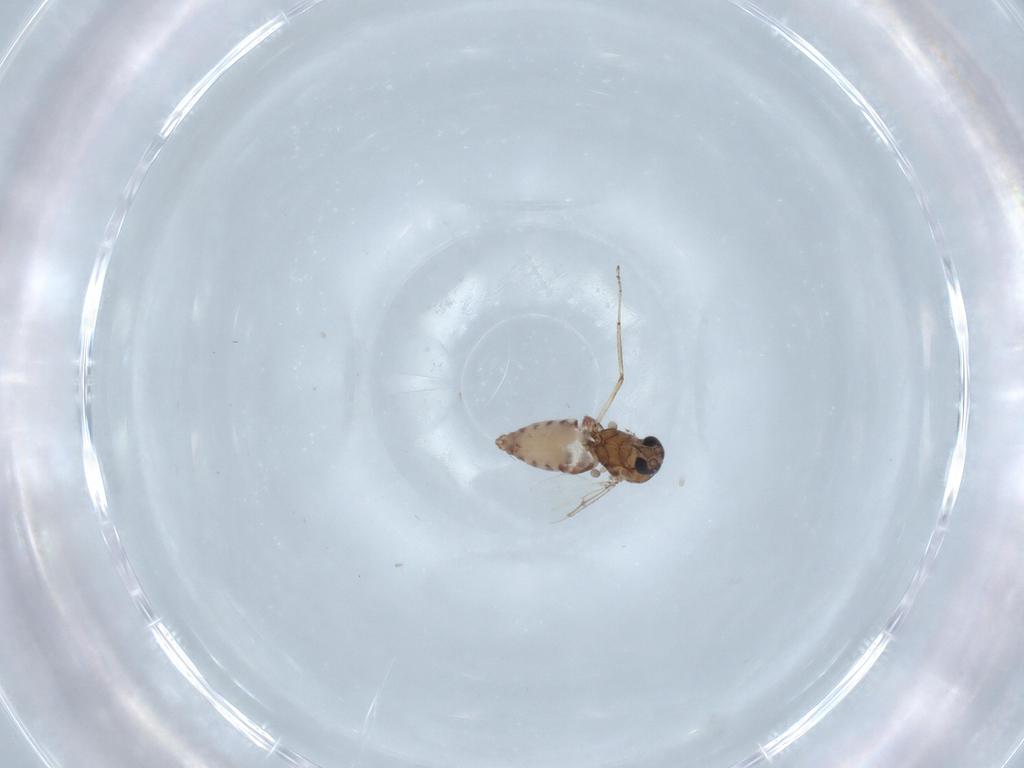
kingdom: Animalia
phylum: Arthropoda
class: Insecta
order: Diptera
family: Ceratopogonidae
